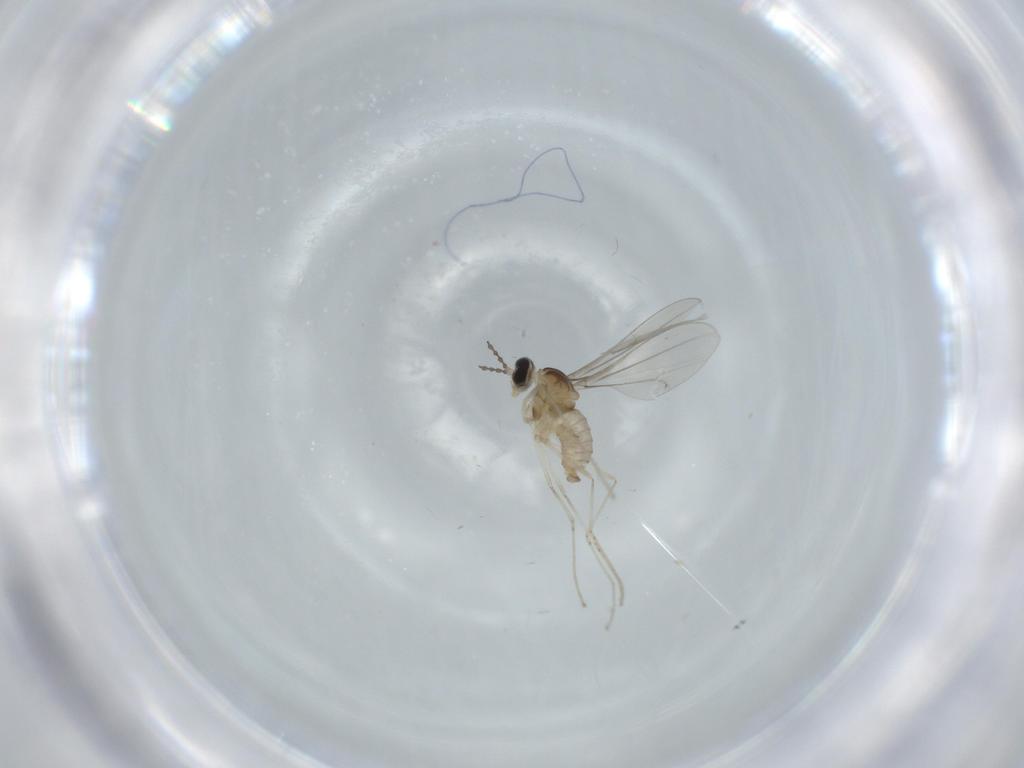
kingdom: Animalia
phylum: Arthropoda
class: Insecta
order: Diptera
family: Cecidomyiidae
